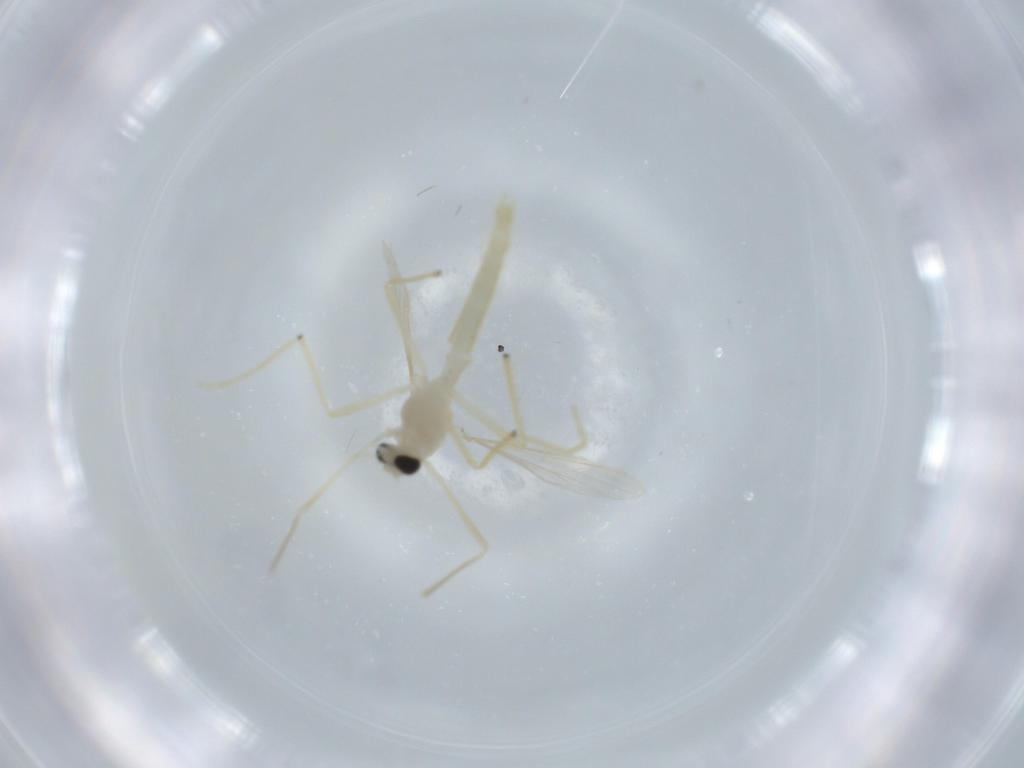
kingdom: Animalia
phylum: Arthropoda
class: Insecta
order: Diptera
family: Chironomidae
